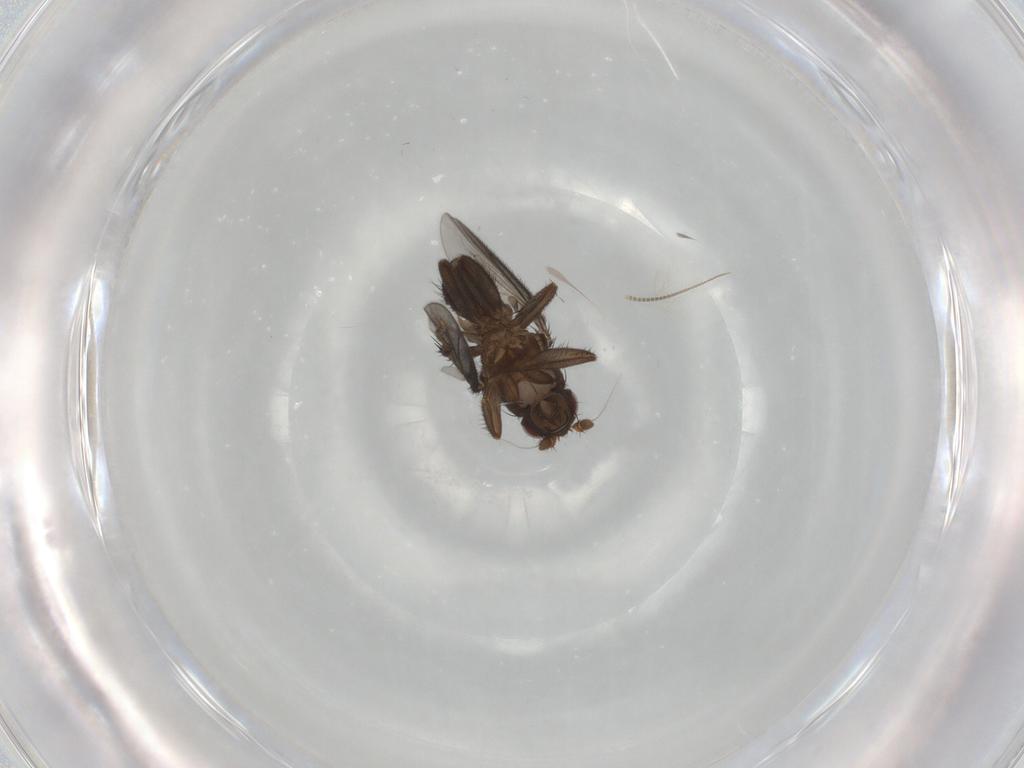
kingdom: Animalia
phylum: Arthropoda
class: Insecta
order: Diptera
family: Sphaeroceridae
